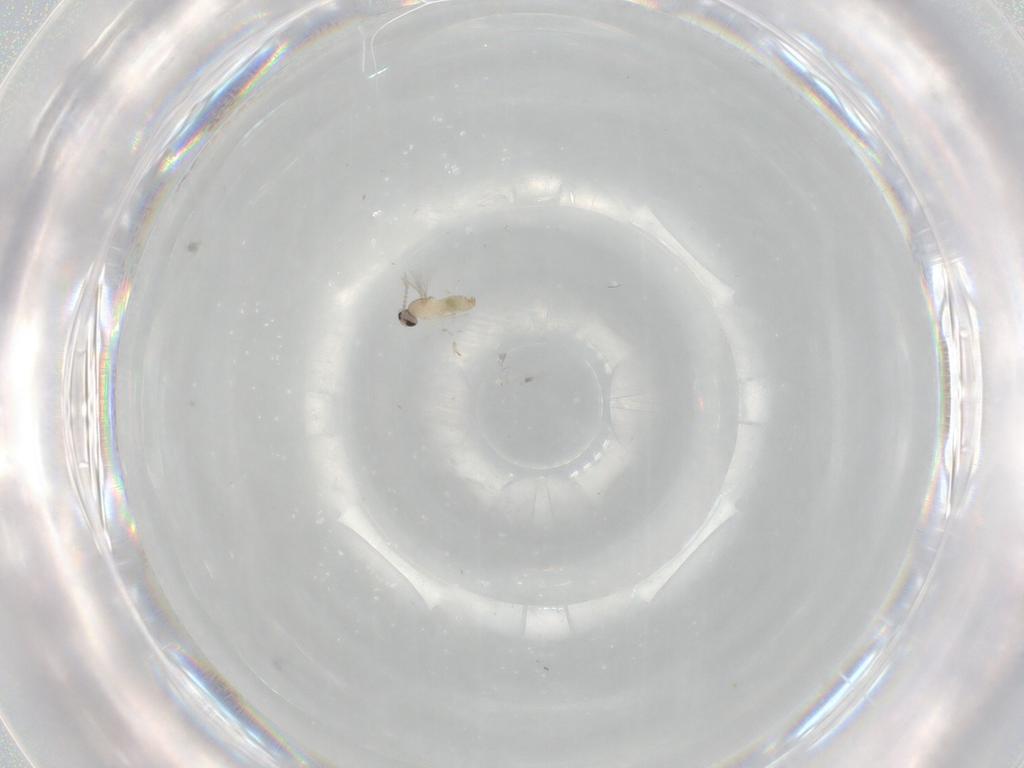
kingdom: Animalia
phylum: Arthropoda
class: Insecta
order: Diptera
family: Cecidomyiidae
